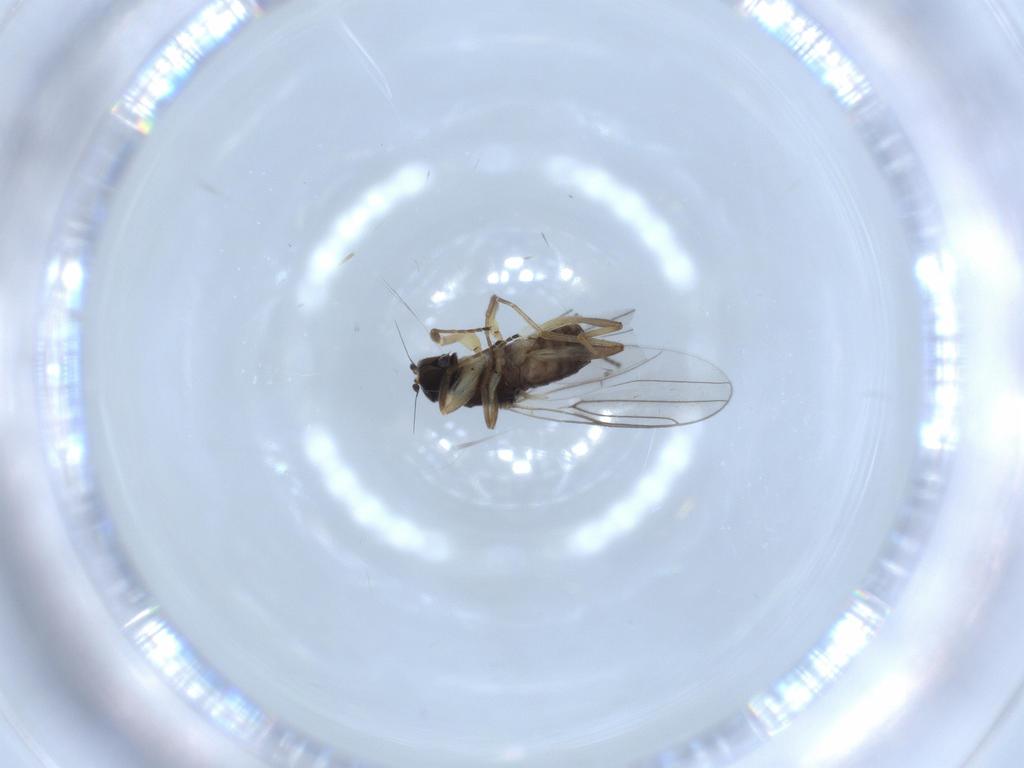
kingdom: Animalia
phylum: Arthropoda
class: Insecta
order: Diptera
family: Hybotidae
